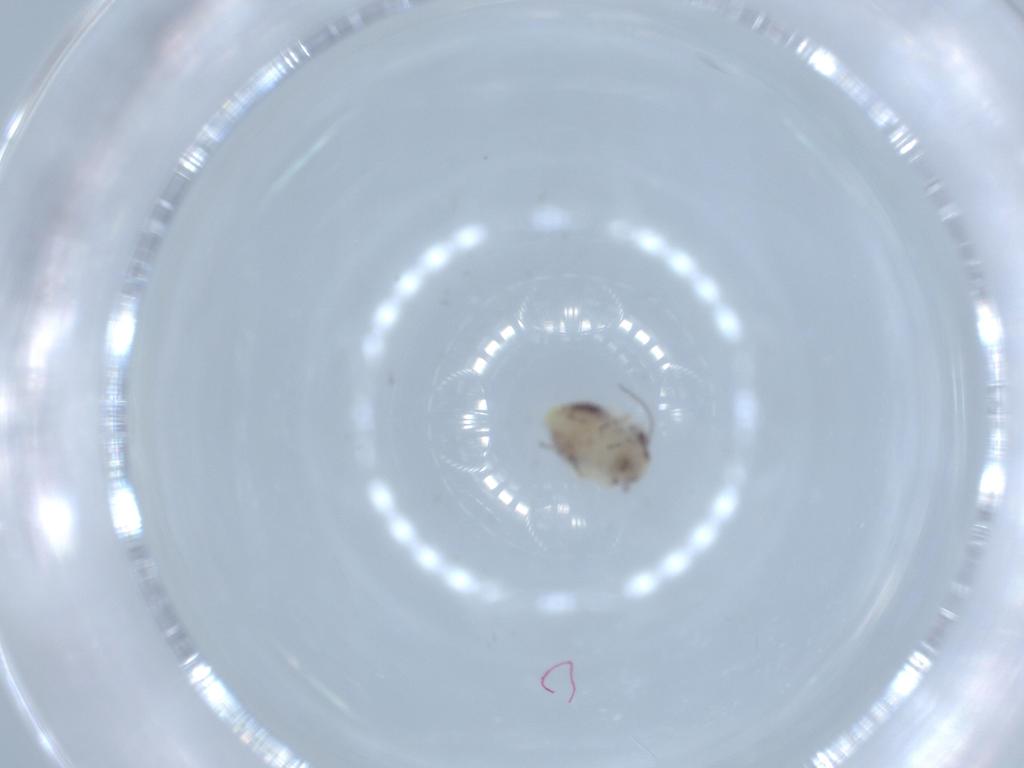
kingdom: Animalia
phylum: Arthropoda
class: Insecta
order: Psocodea
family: Psocidae
